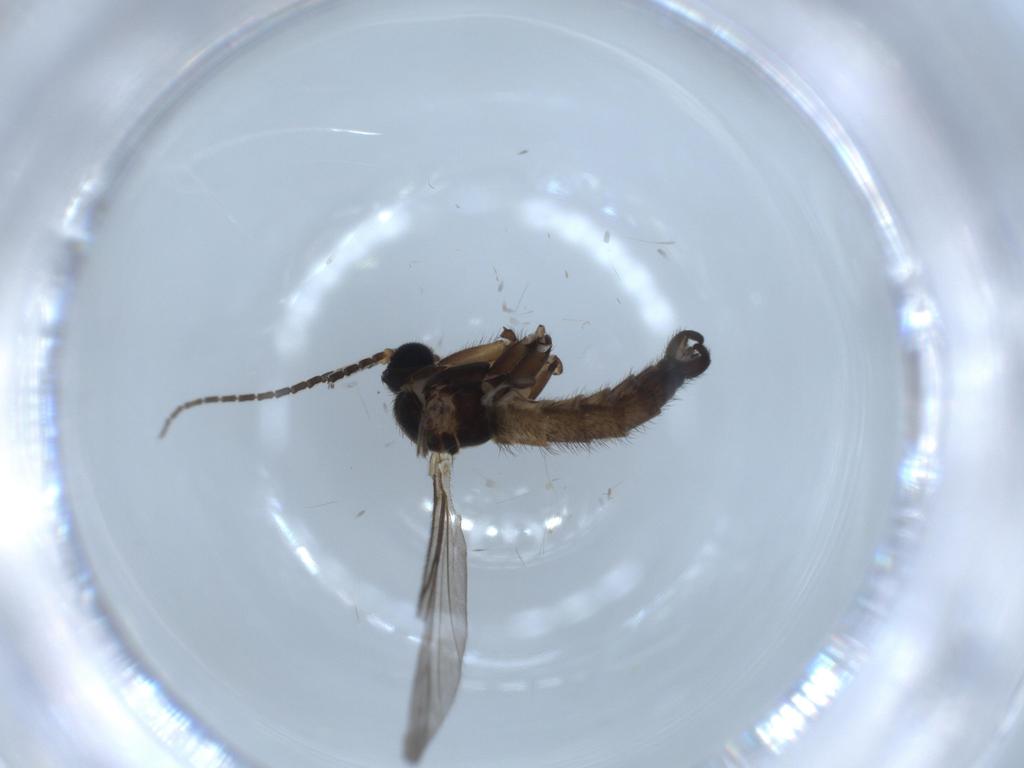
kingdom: Animalia
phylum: Arthropoda
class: Insecta
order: Diptera
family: Sciaridae
